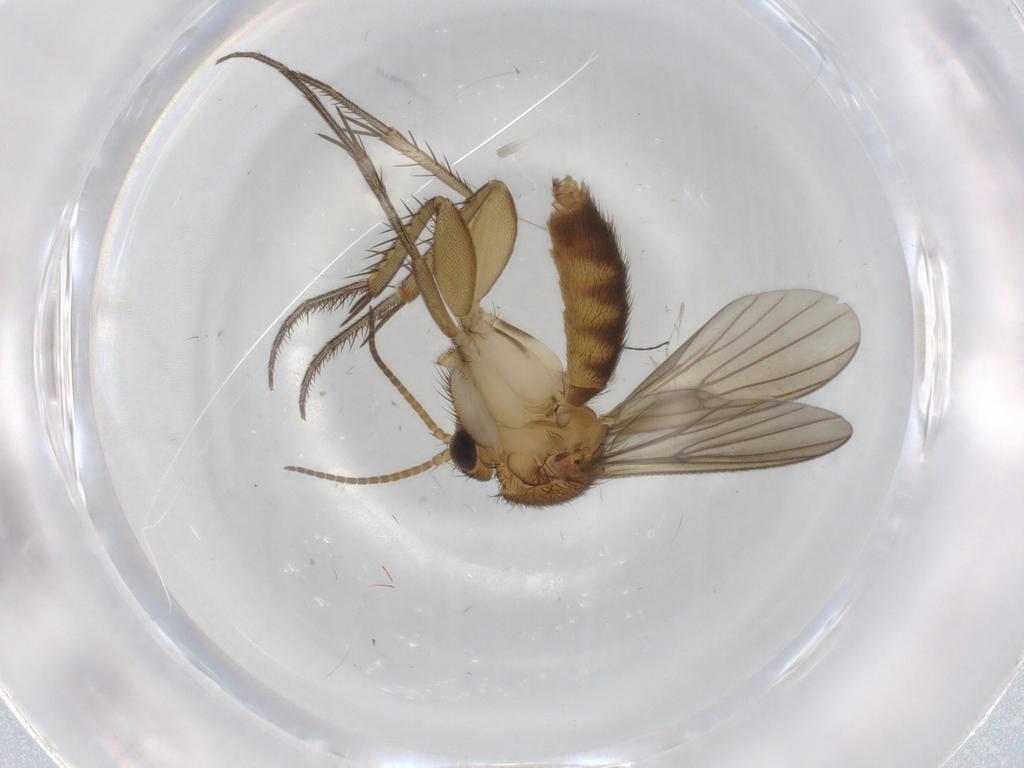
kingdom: Animalia
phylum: Arthropoda
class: Insecta
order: Diptera
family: Mycetophilidae
